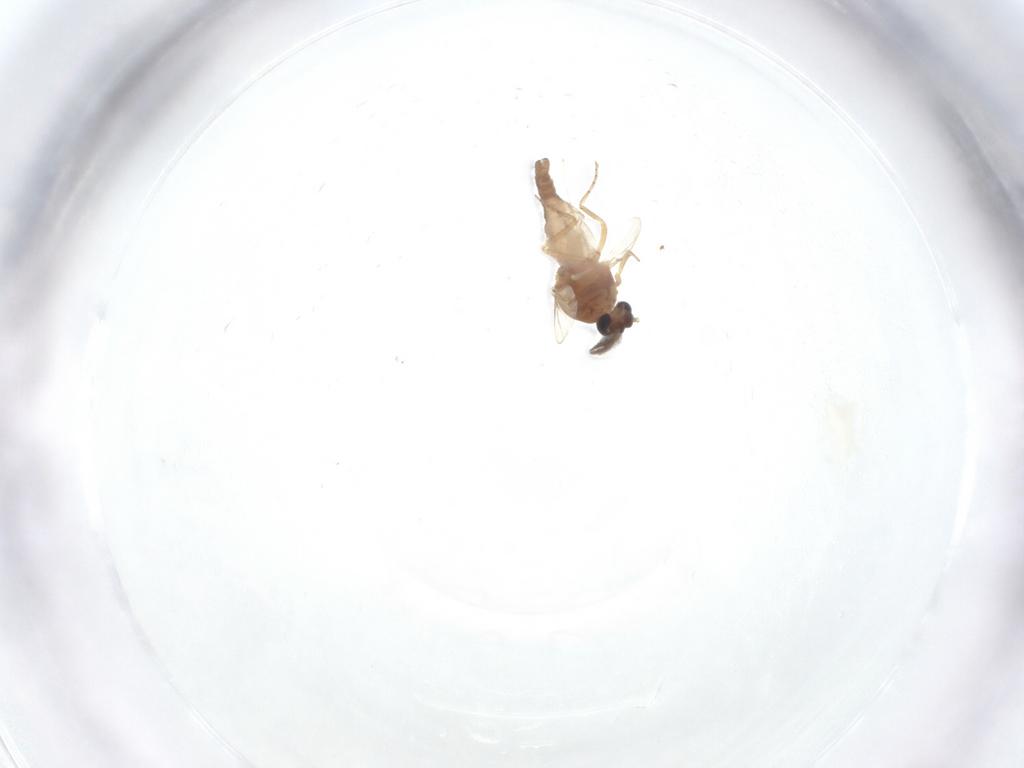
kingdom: Animalia
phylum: Arthropoda
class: Insecta
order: Diptera
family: Ceratopogonidae
